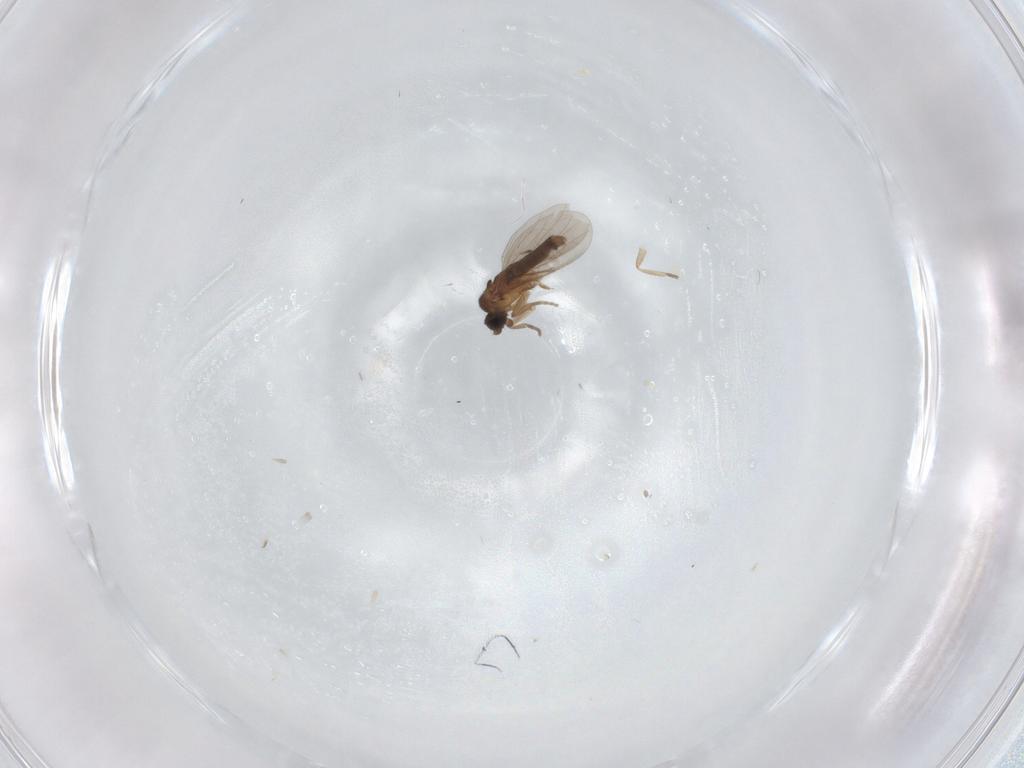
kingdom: Animalia
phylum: Arthropoda
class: Insecta
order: Diptera
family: Phoridae
